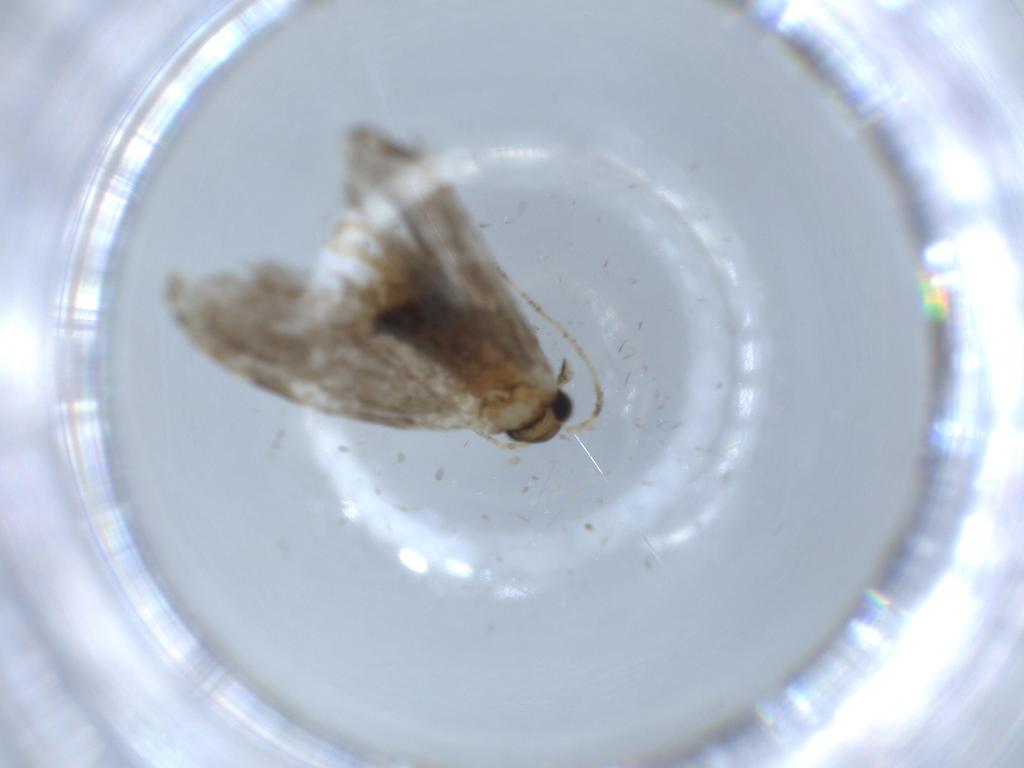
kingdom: Animalia
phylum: Arthropoda
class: Insecta
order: Lepidoptera
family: Tineidae
